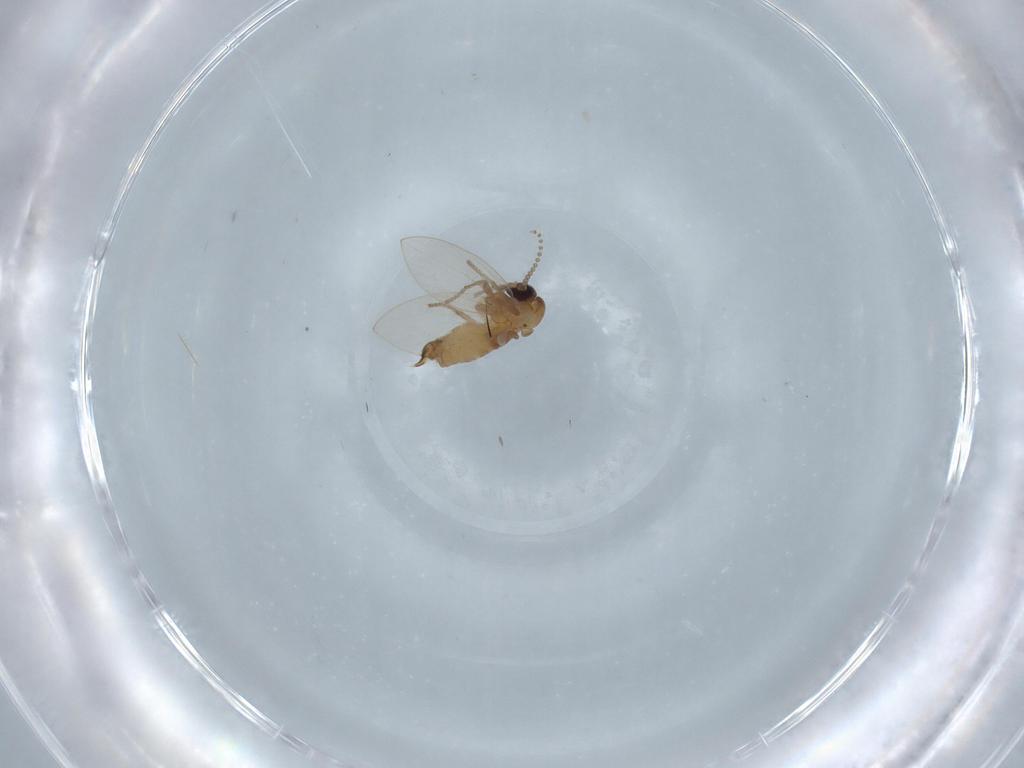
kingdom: Animalia
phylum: Arthropoda
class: Insecta
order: Diptera
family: Psychodidae
